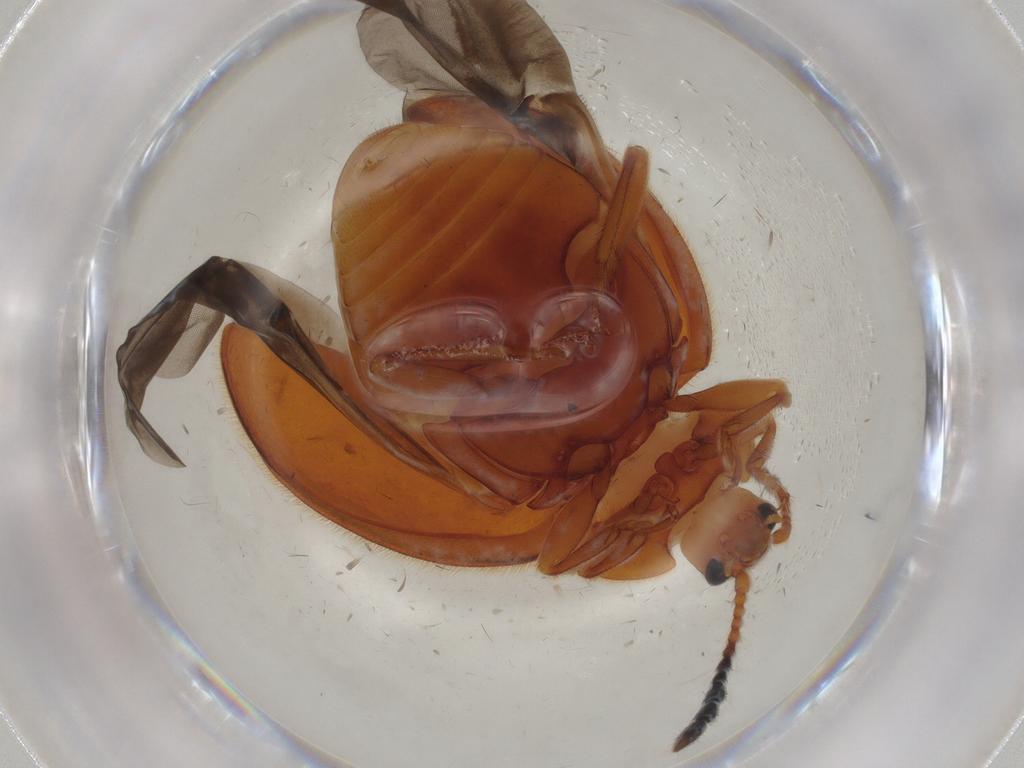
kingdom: Animalia
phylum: Arthropoda
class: Insecta
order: Coleoptera
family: Endomychidae
